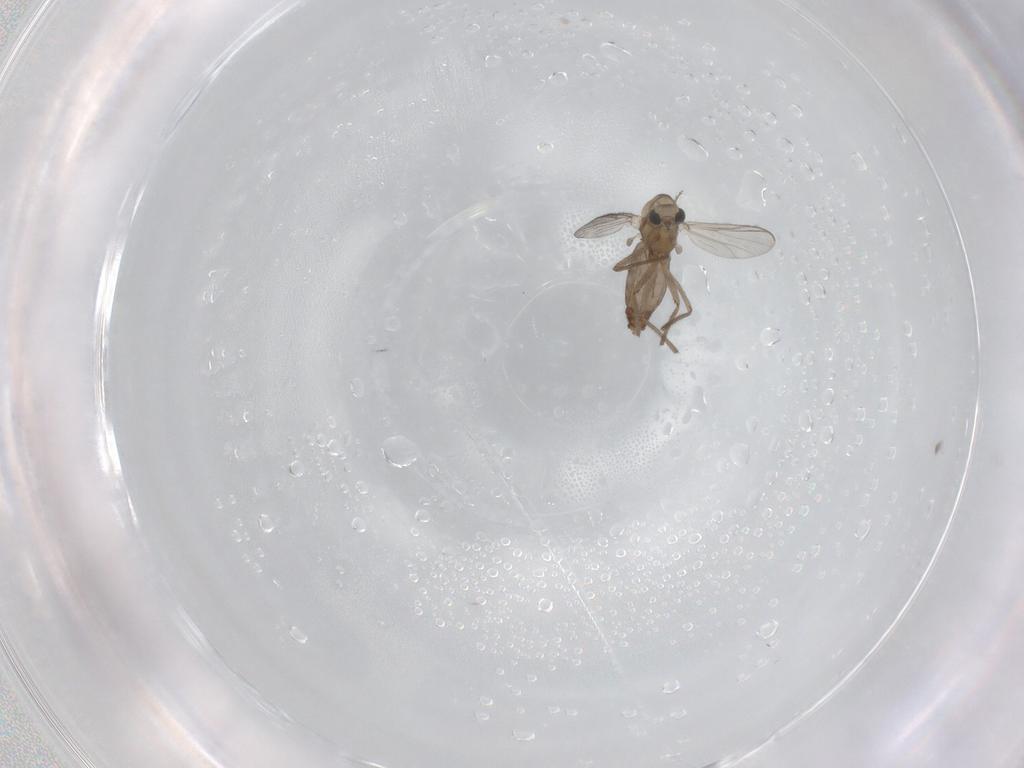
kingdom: Animalia
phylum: Arthropoda
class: Insecta
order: Diptera
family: Chironomidae
